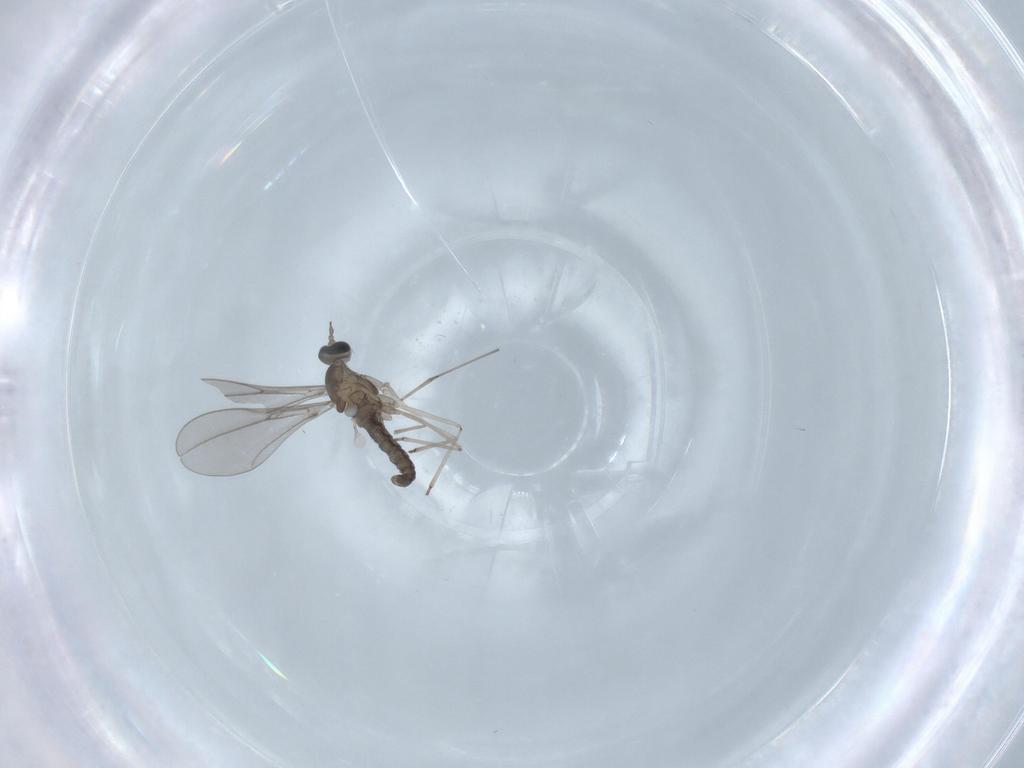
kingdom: Animalia
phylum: Arthropoda
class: Insecta
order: Diptera
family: Cecidomyiidae
